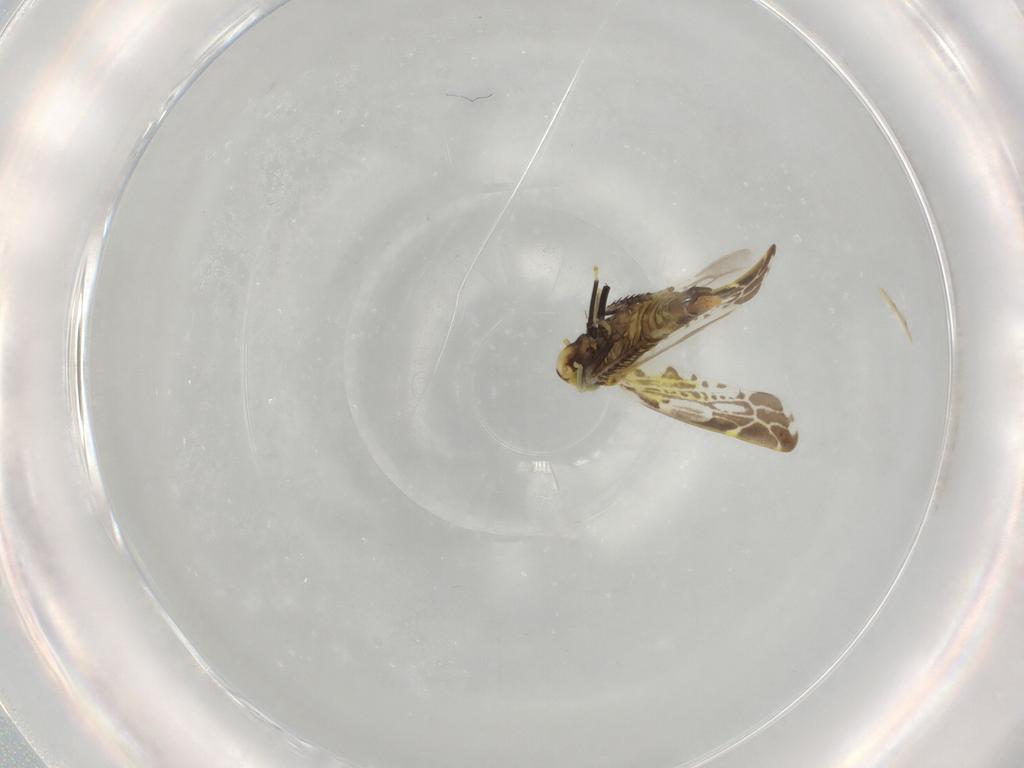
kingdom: Animalia
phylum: Arthropoda
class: Insecta
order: Hemiptera
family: Cicadellidae
